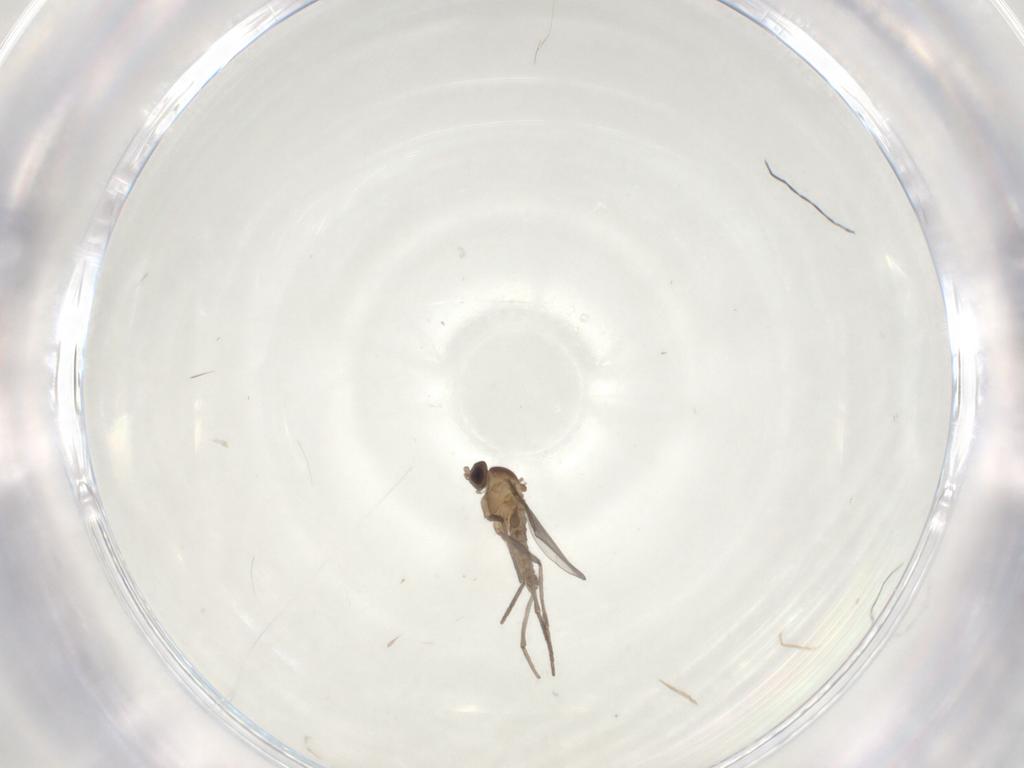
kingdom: Animalia
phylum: Arthropoda
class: Insecta
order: Diptera
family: Cecidomyiidae
